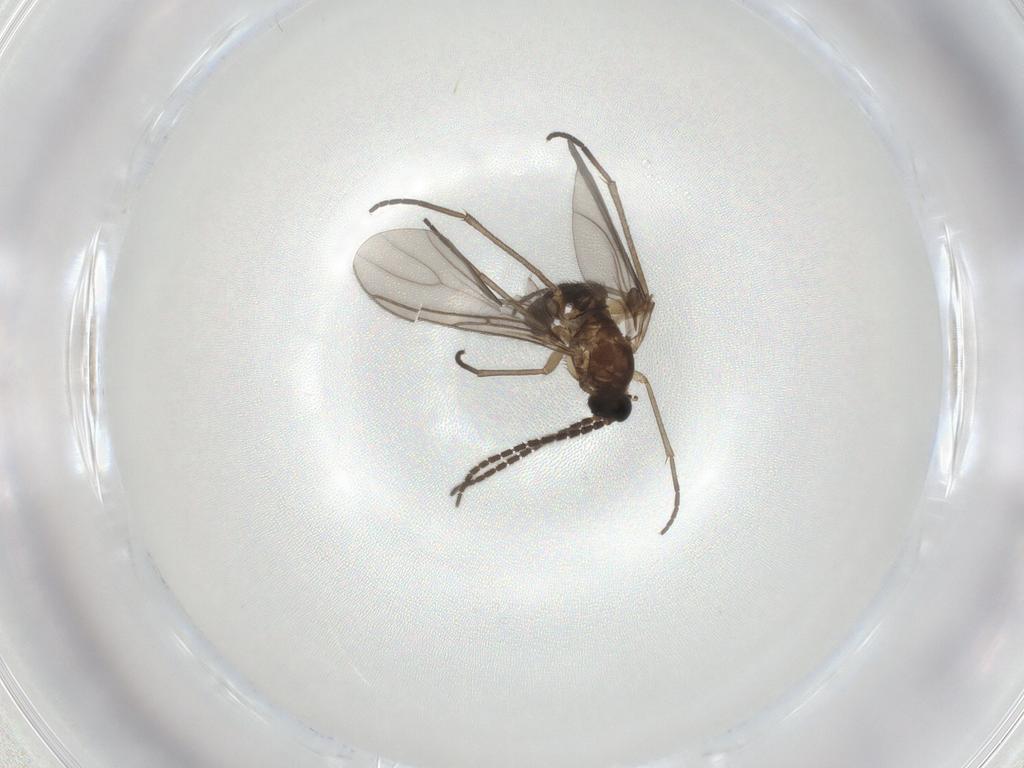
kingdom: Animalia
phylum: Arthropoda
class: Insecta
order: Diptera
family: Sciaridae
